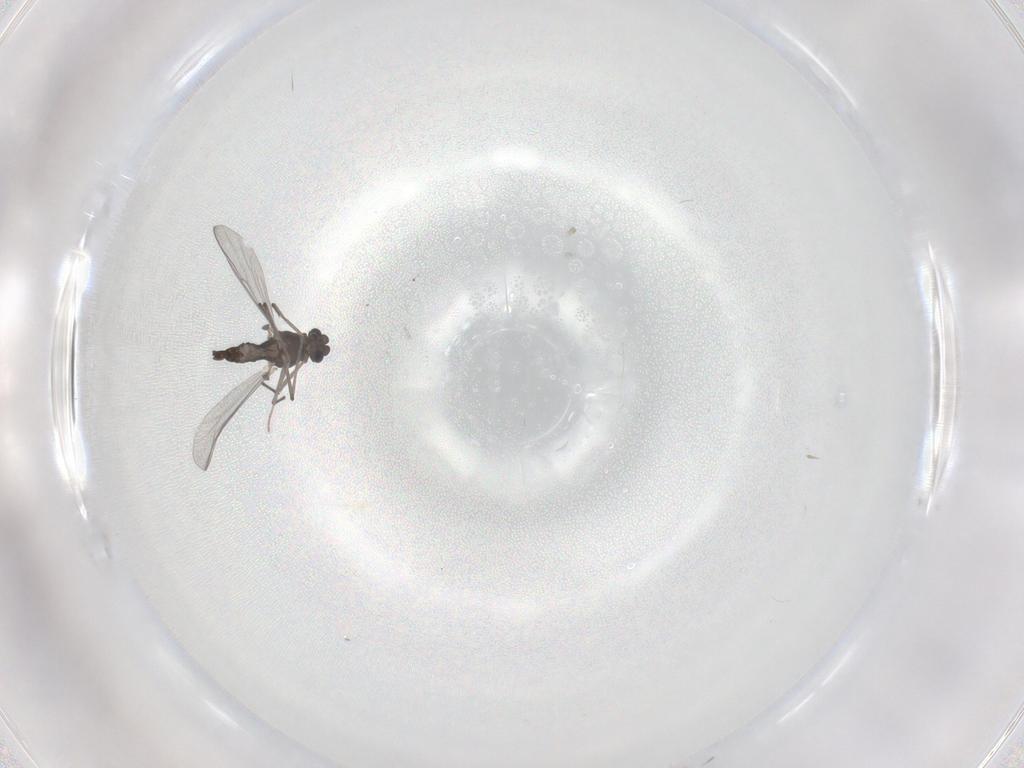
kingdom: Animalia
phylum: Arthropoda
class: Insecta
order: Diptera
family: Chironomidae
